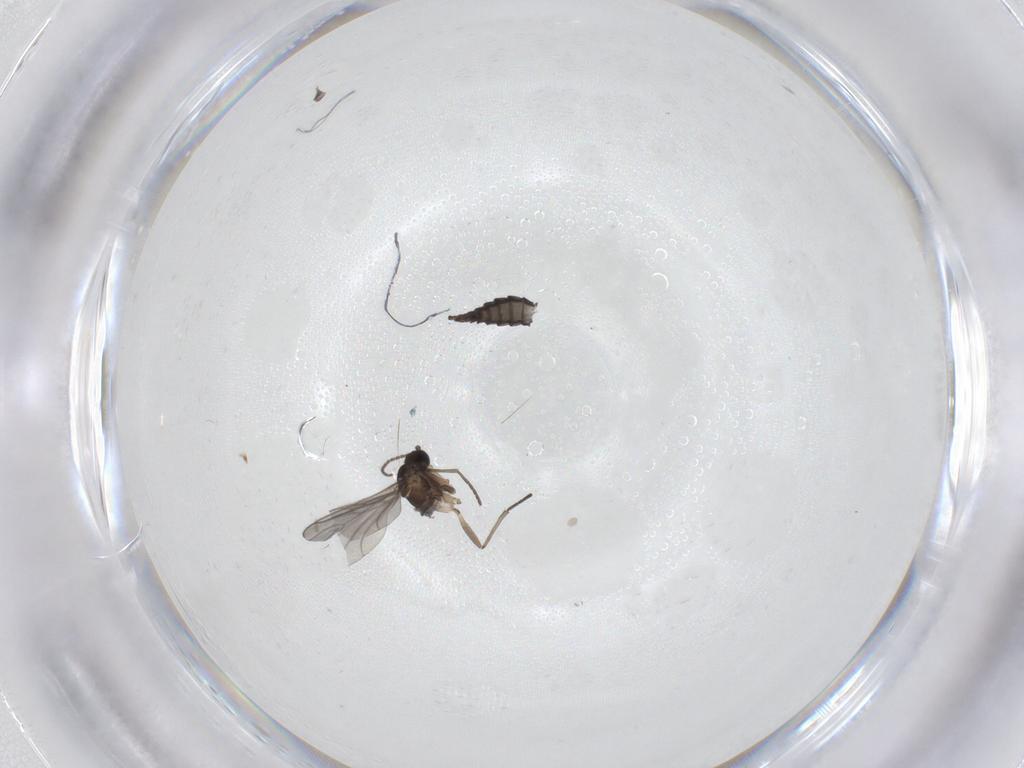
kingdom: Animalia
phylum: Arthropoda
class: Insecta
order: Diptera
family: Sciaridae
